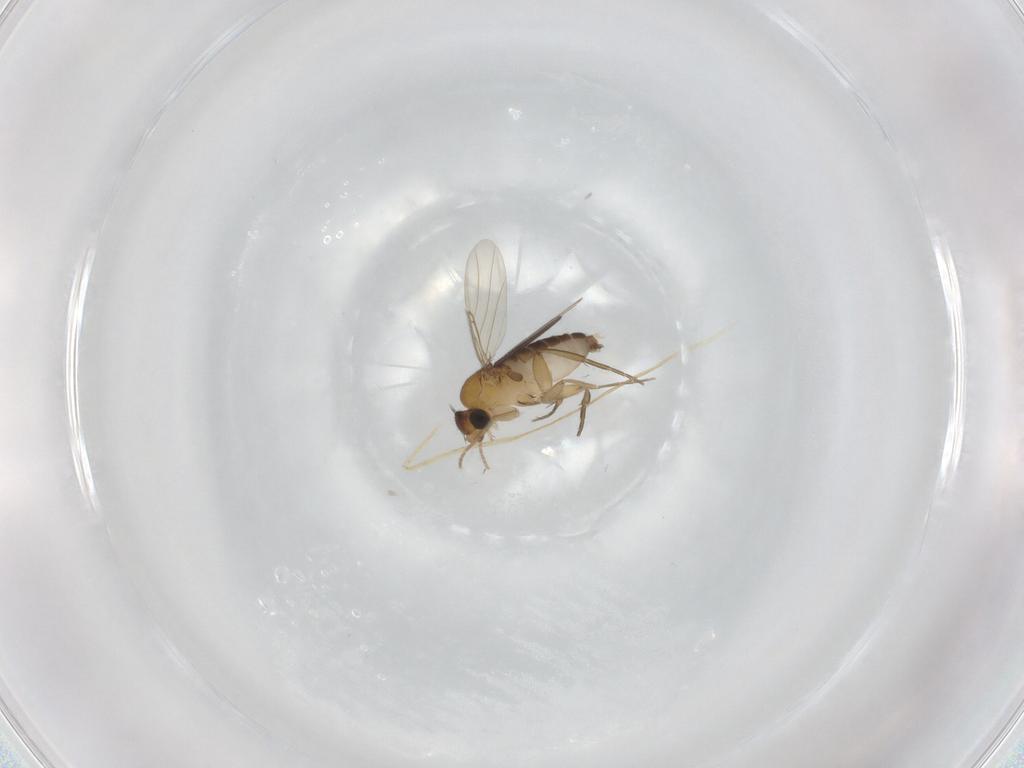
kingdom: Animalia
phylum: Arthropoda
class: Insecta
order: Diptera
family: Phoridae
